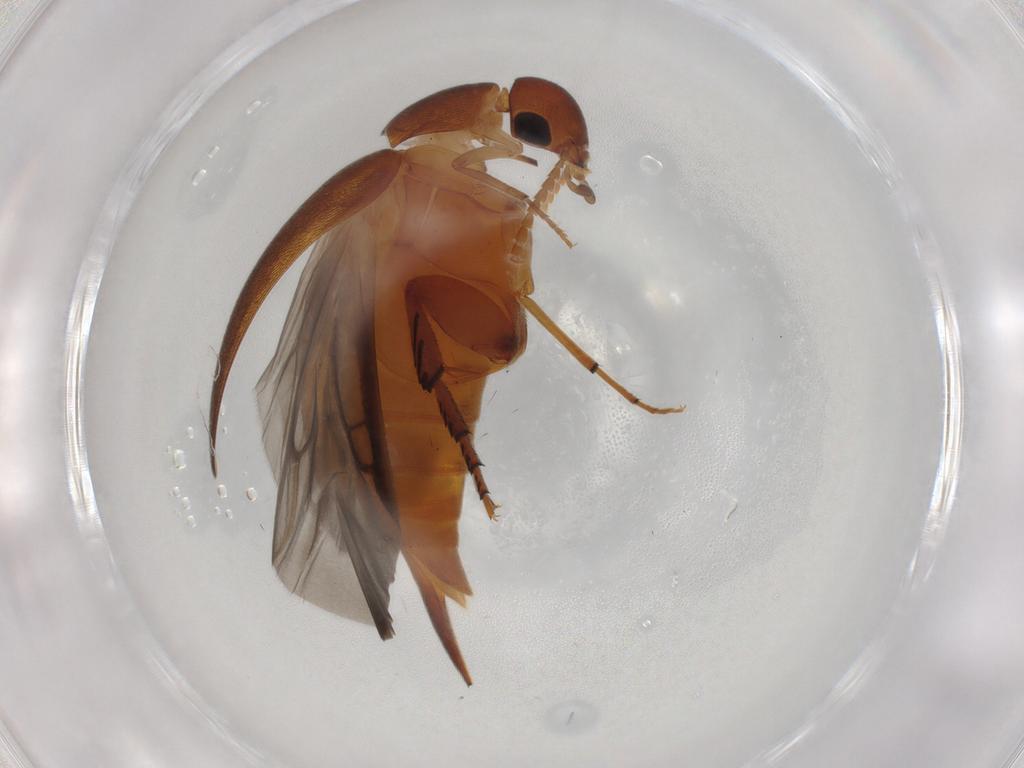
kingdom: Animalia
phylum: Arthropoda
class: Insecta
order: Coleoptera
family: Mordellidae
